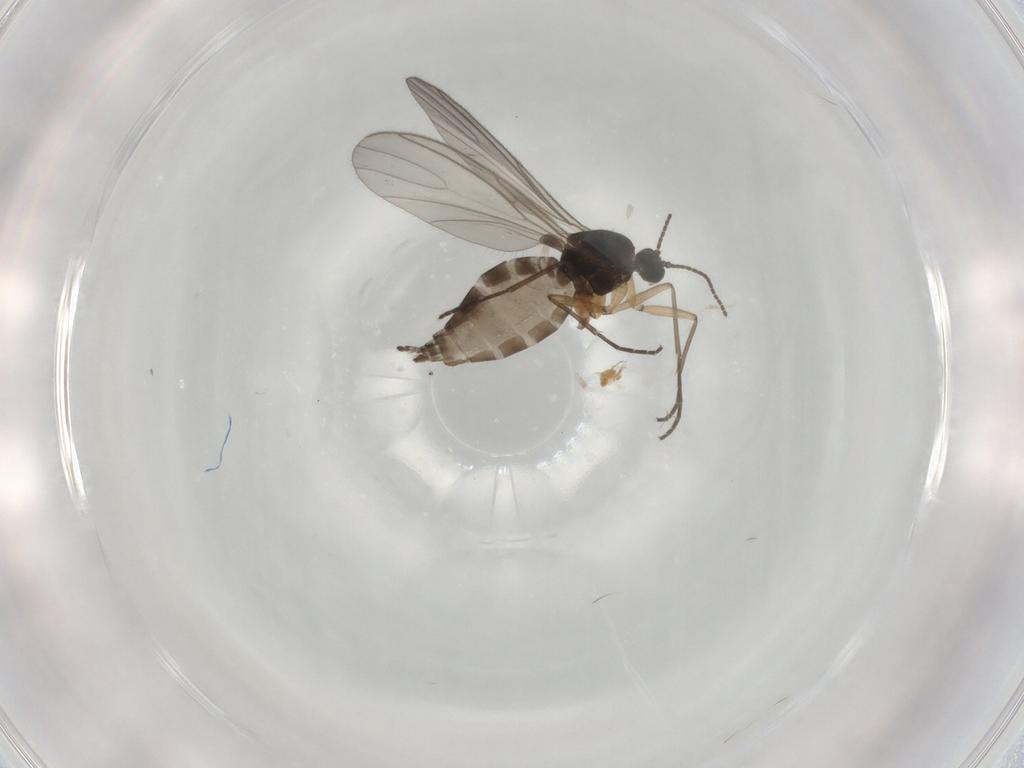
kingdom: Animalia
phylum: Arthropoda
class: Insecta
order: Diptera
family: Sciaridae
